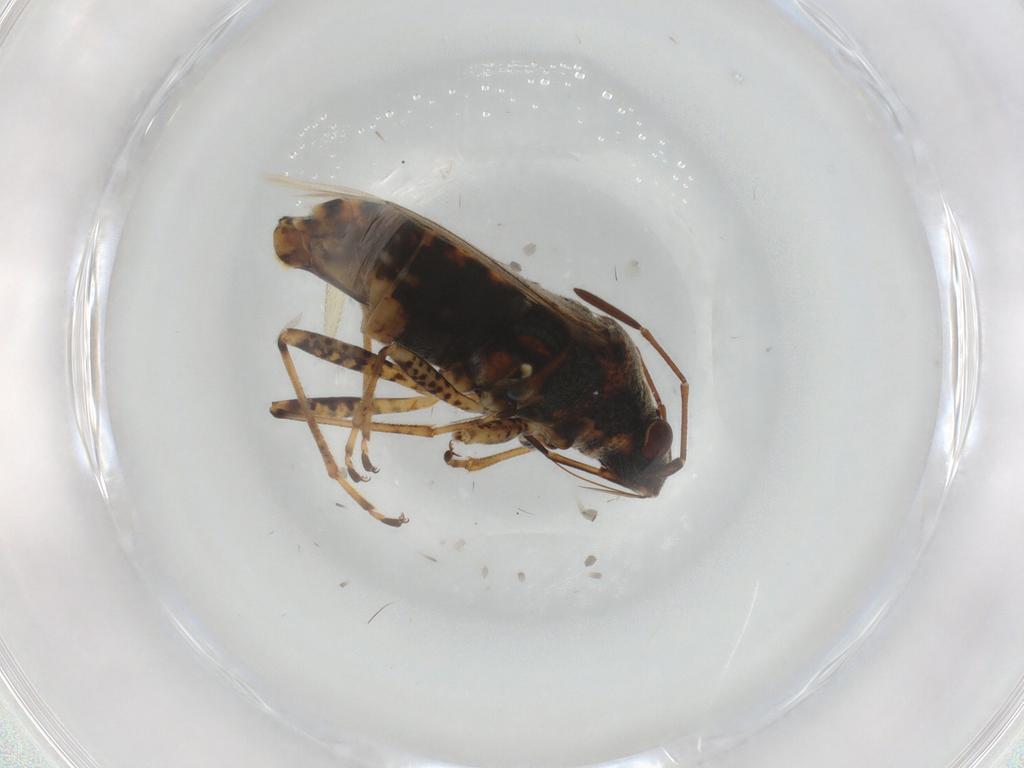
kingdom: Animalia
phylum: Arthropoda
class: Insecta
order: Hemiptera
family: Lygaeidae
